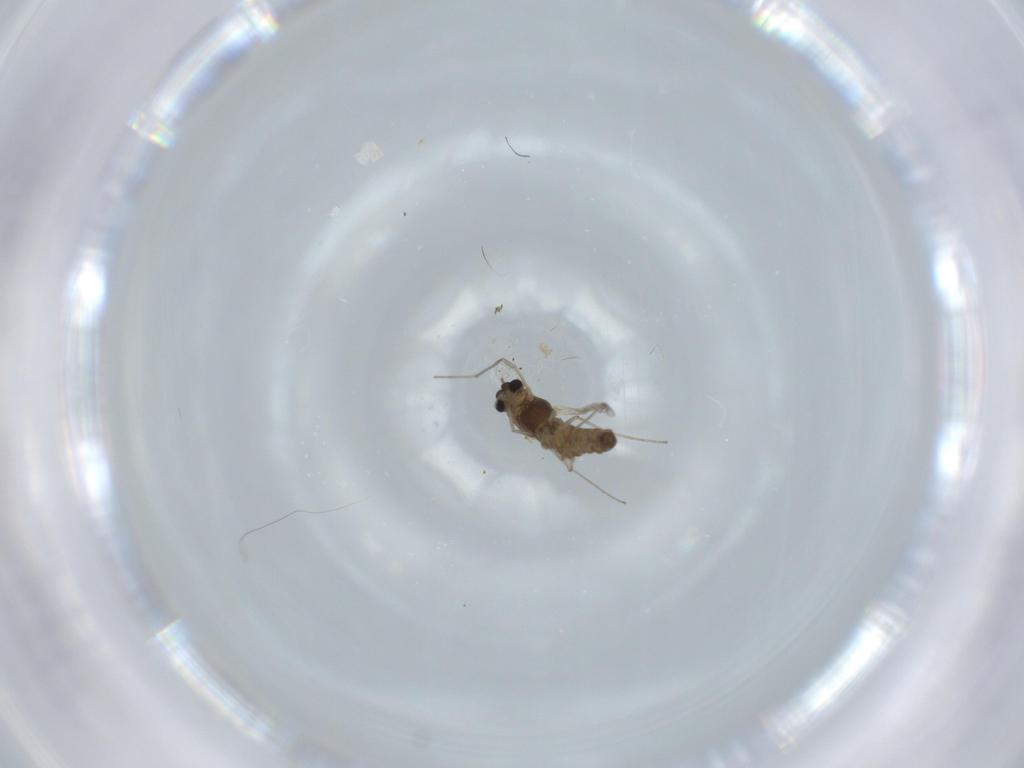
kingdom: Animalia
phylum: Arthropoda
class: Insecta
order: Diptera
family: Chironomidae
